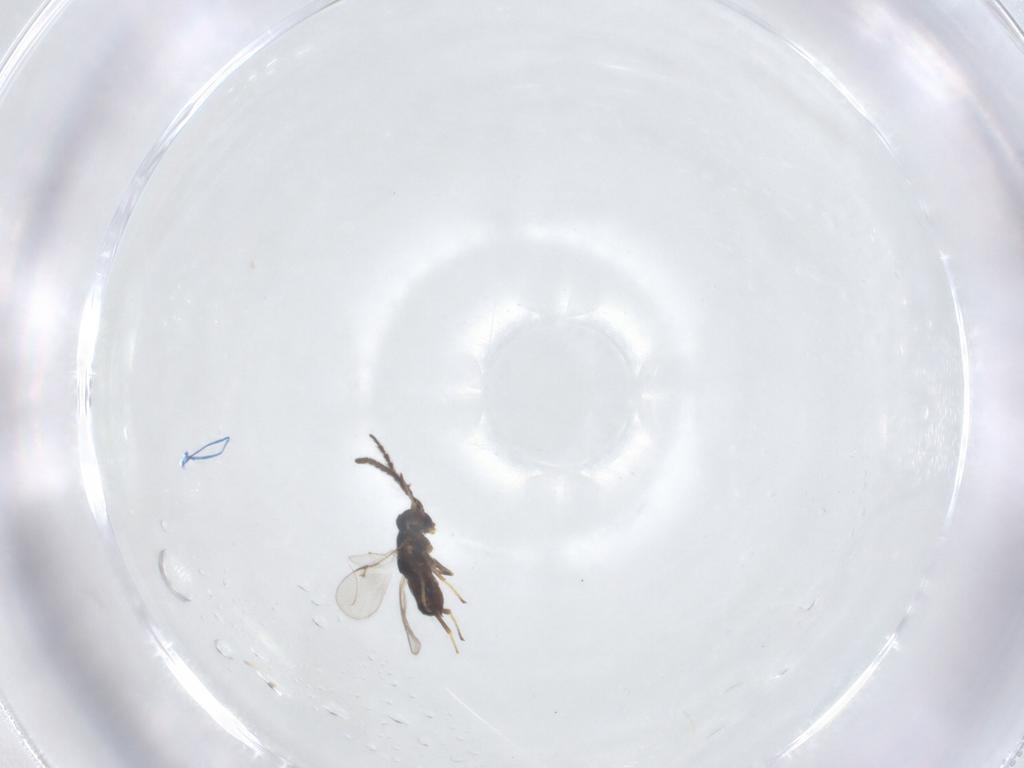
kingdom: Animalia
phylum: Arthropoda
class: Insecta
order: Hymenoptera
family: Encyrtidae
